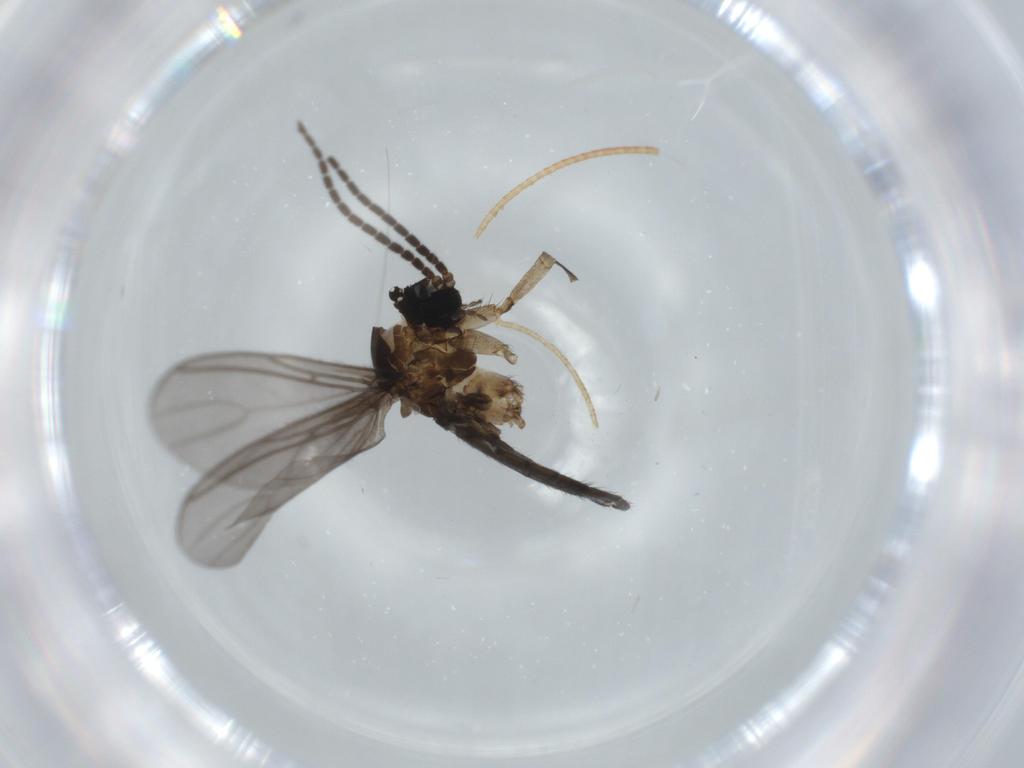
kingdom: Animalia
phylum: Arthropoda
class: Insecta
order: Diptera
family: Sciaridae
